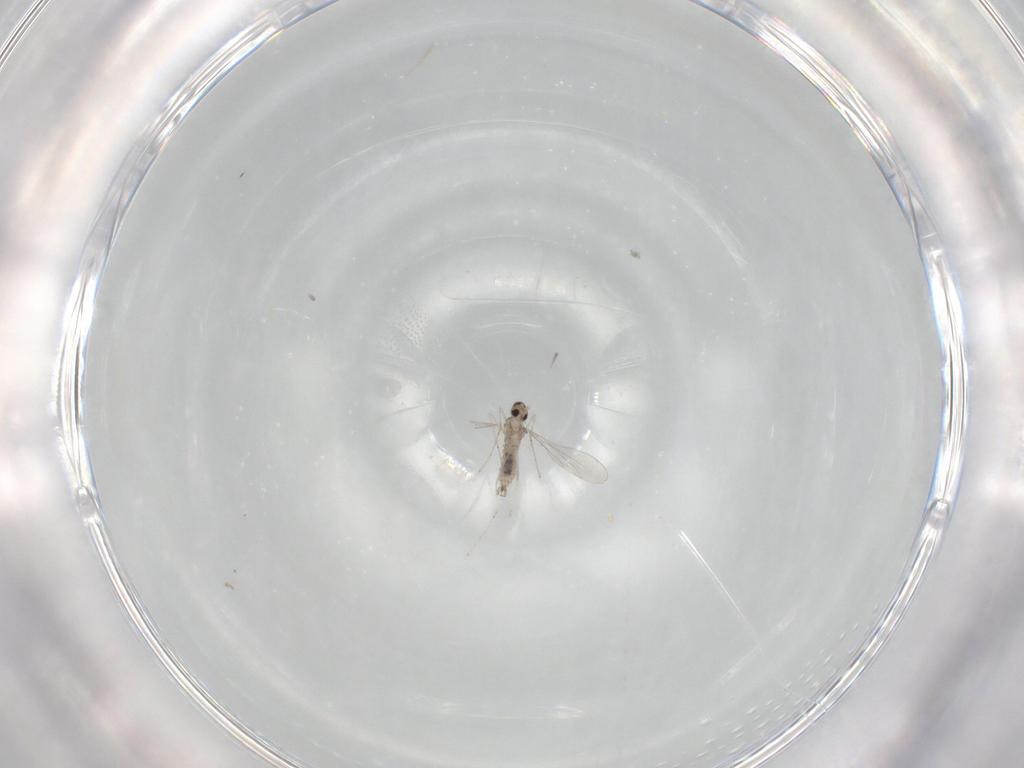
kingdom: Animalia
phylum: Arthropoda
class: Insecta
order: Diptera
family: Cecidomyiidae
